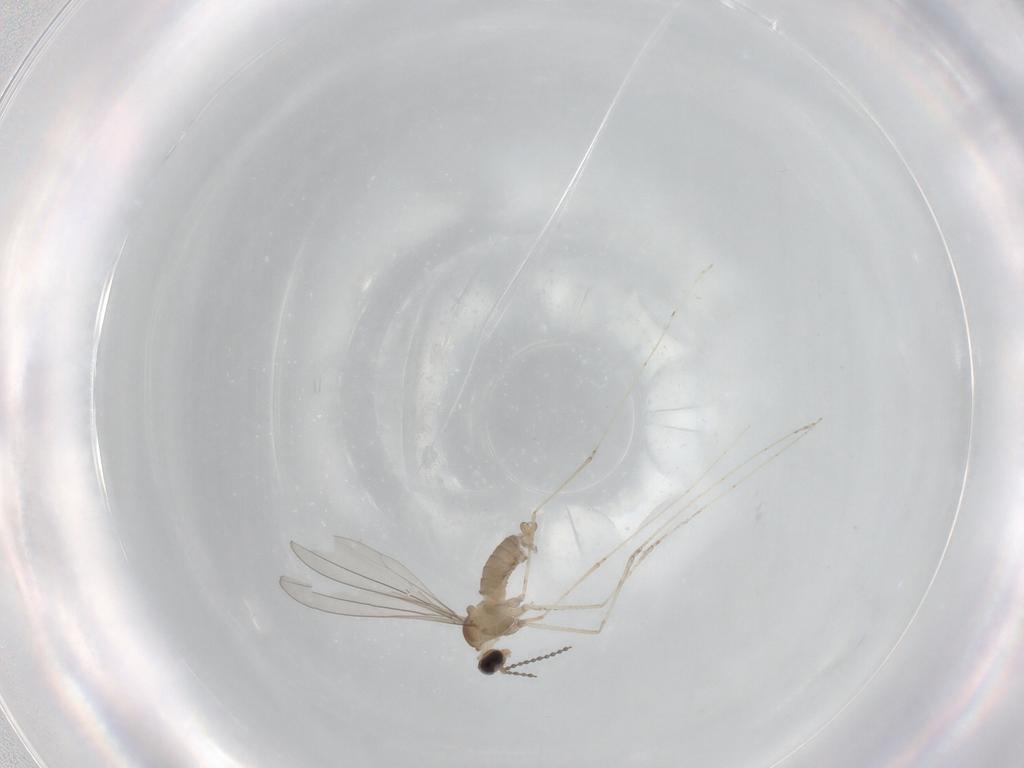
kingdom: Animalia
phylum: Arthropoda
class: Insecta
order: Diptera
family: Cecidomyiidae
